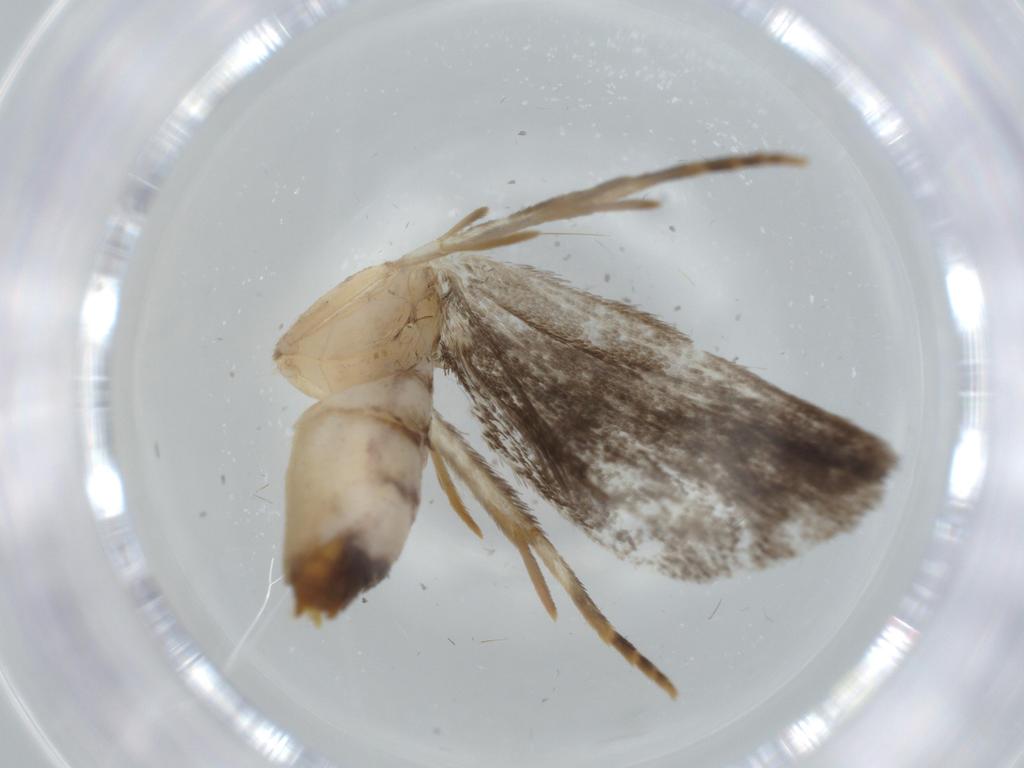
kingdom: Animalia
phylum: Arthropoda
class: Insecta
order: Lepidoptera
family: Dryadaulidae
